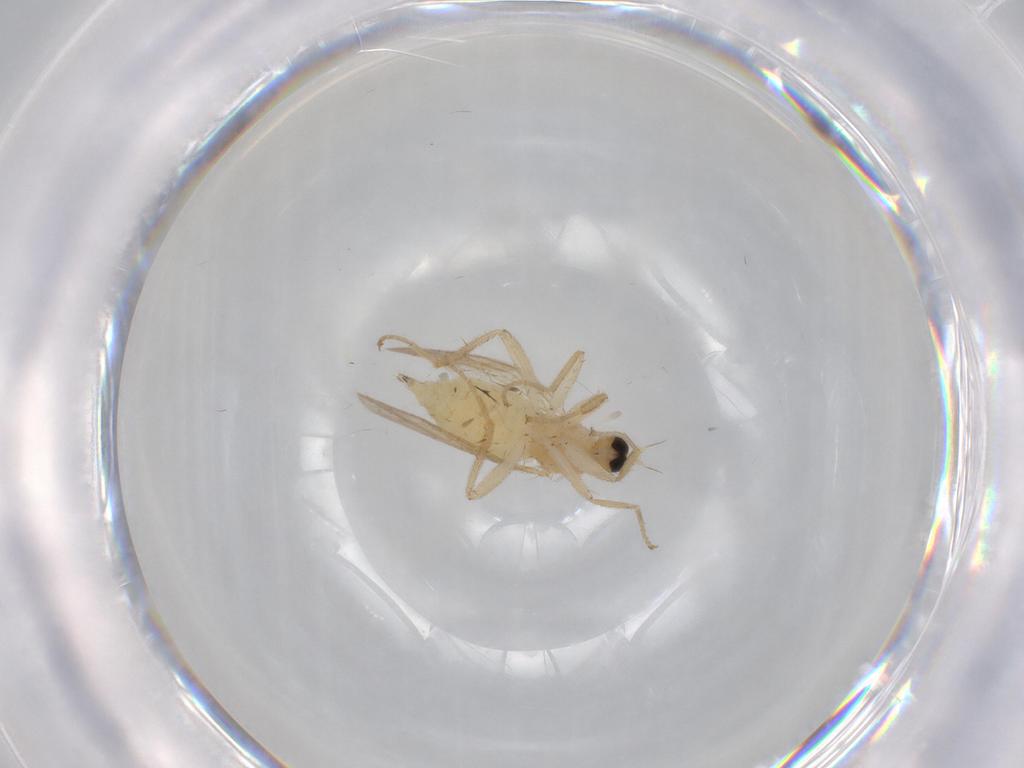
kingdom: Animalia
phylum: Arthropoda
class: Insecta
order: Diptera
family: Hybotidae
